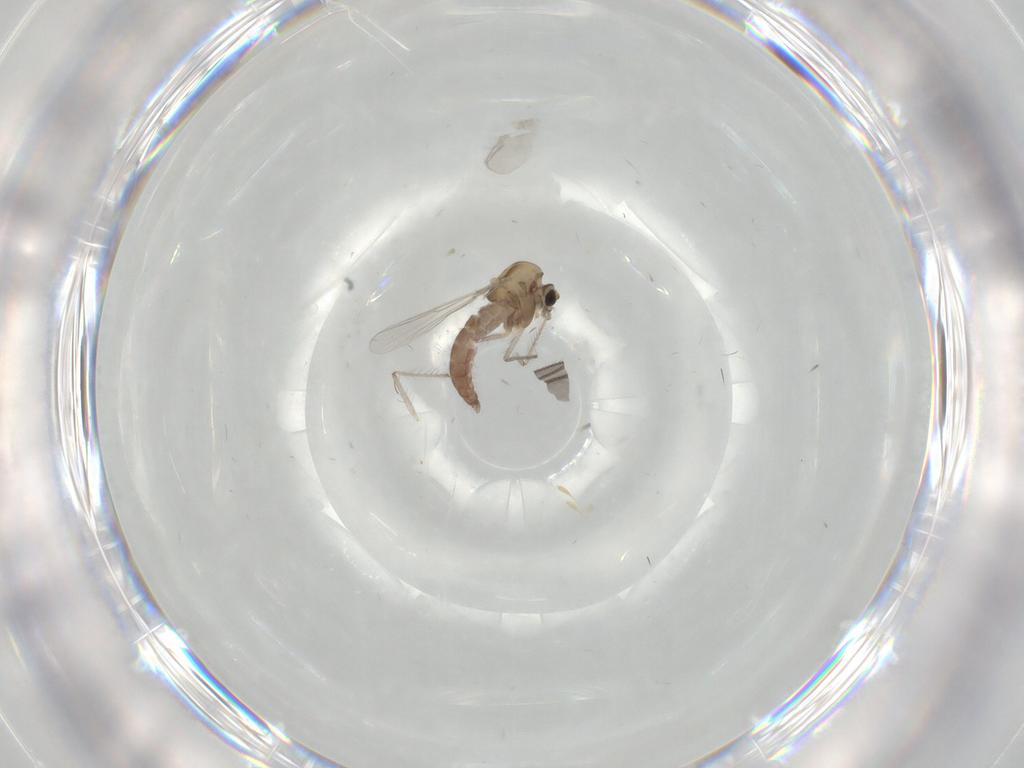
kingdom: Animalia
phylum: Arthropoda
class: Insecta
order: Diptera
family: Chironomidae
